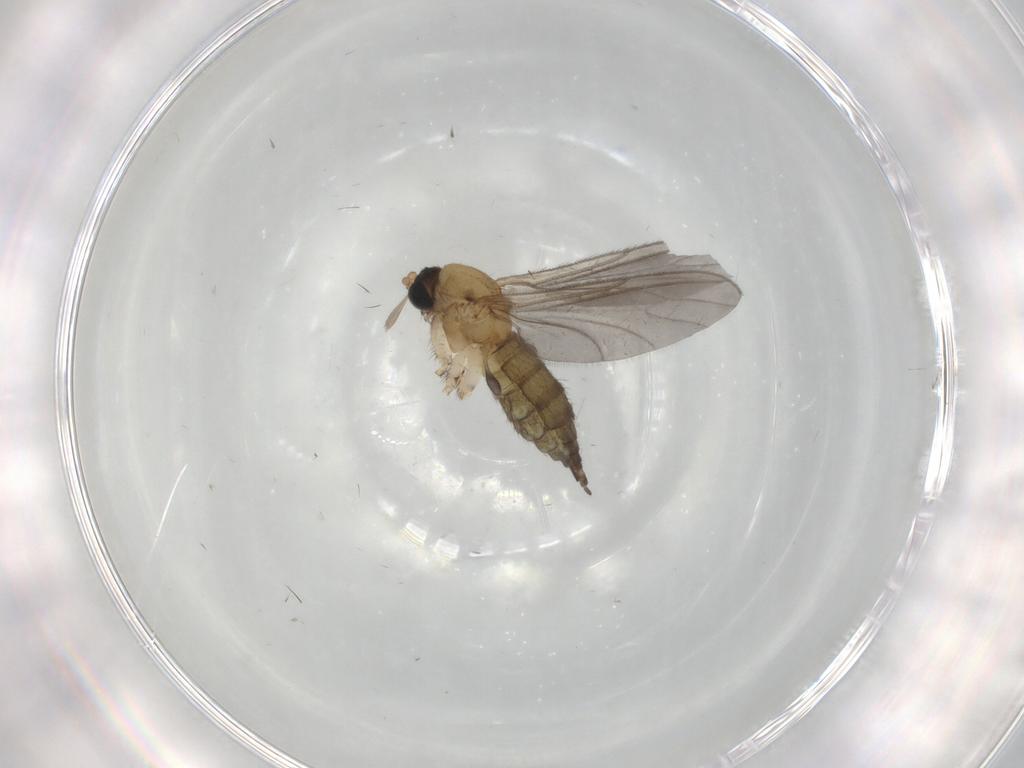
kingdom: Animalia
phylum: Arthropoda
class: Insecta
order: Diptera
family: Sciaridae
